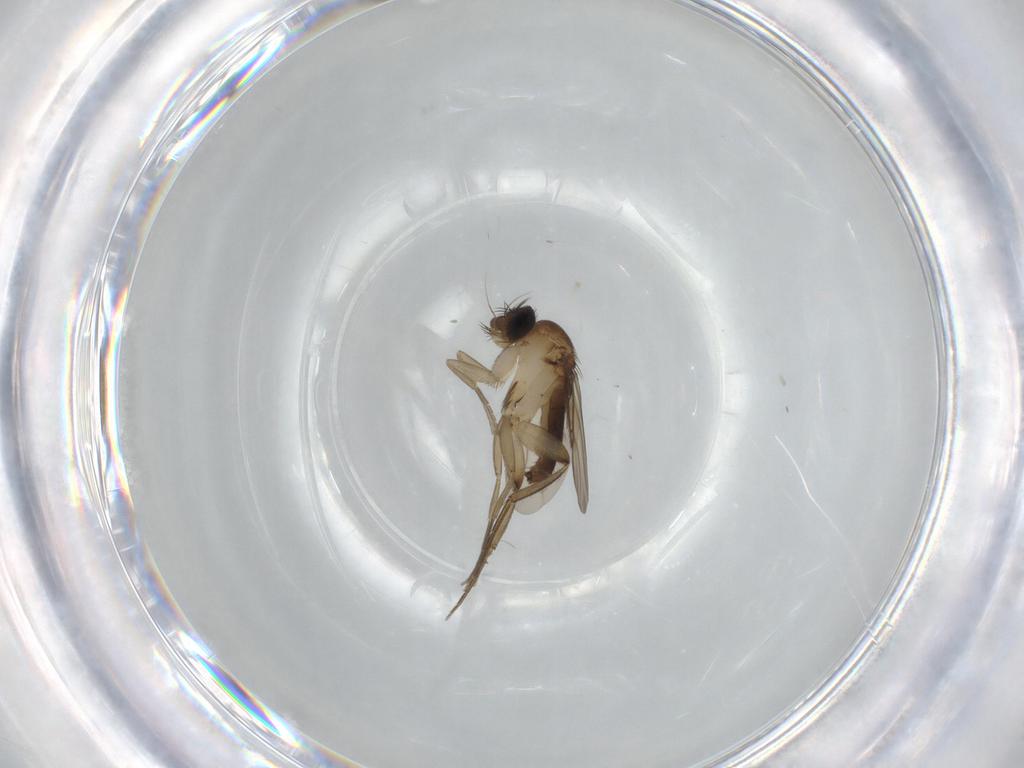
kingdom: Animalia
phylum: Arthropoda
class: Insecta
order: Diptera
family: Phoridae
